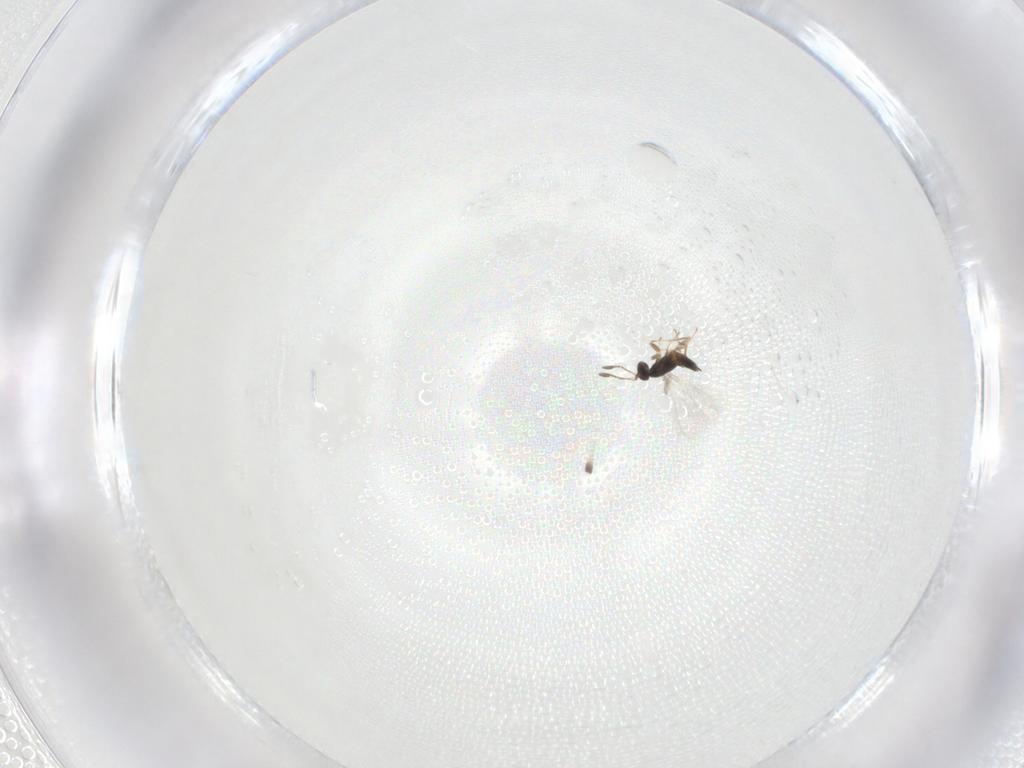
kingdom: Animalia
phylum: Arthropoda
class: Insecta
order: Hymenoptera
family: Mymaridae
